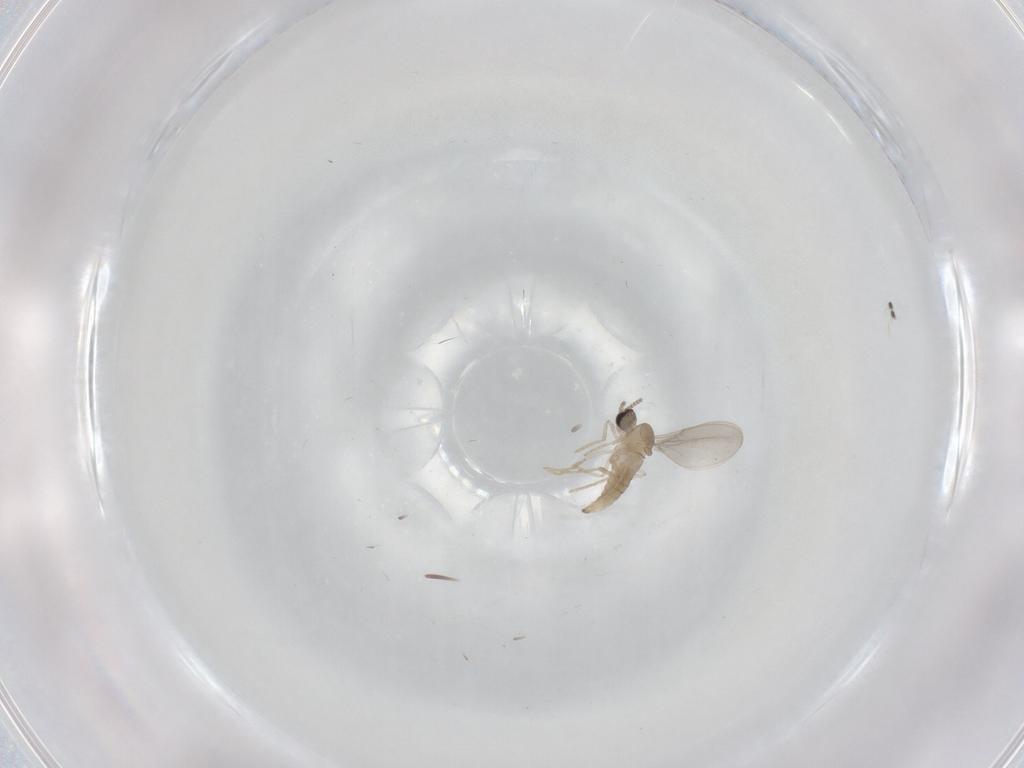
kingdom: Animalia
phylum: Arthropoda
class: Insecta
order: Diptera
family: Cecidomyiidae
